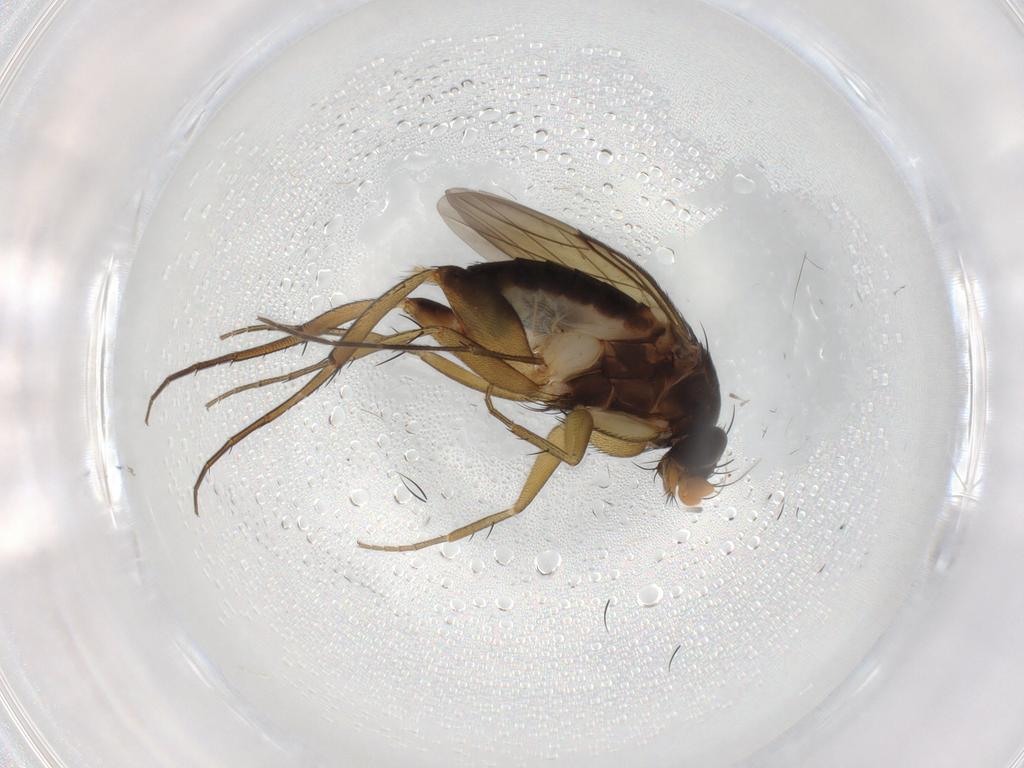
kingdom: Animalia
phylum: Arthropoda
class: Insecta
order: Diptera
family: Phoridae
